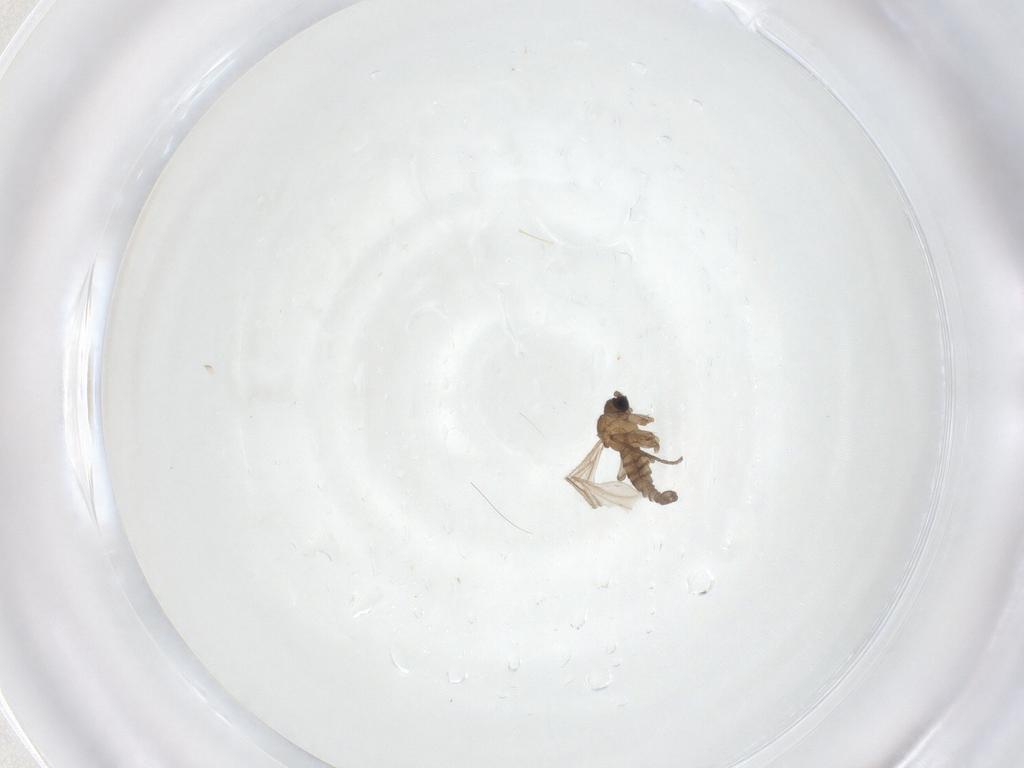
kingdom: Animalia
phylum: Arthropoda
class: Insecta
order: Diptera
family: Sciaridae
